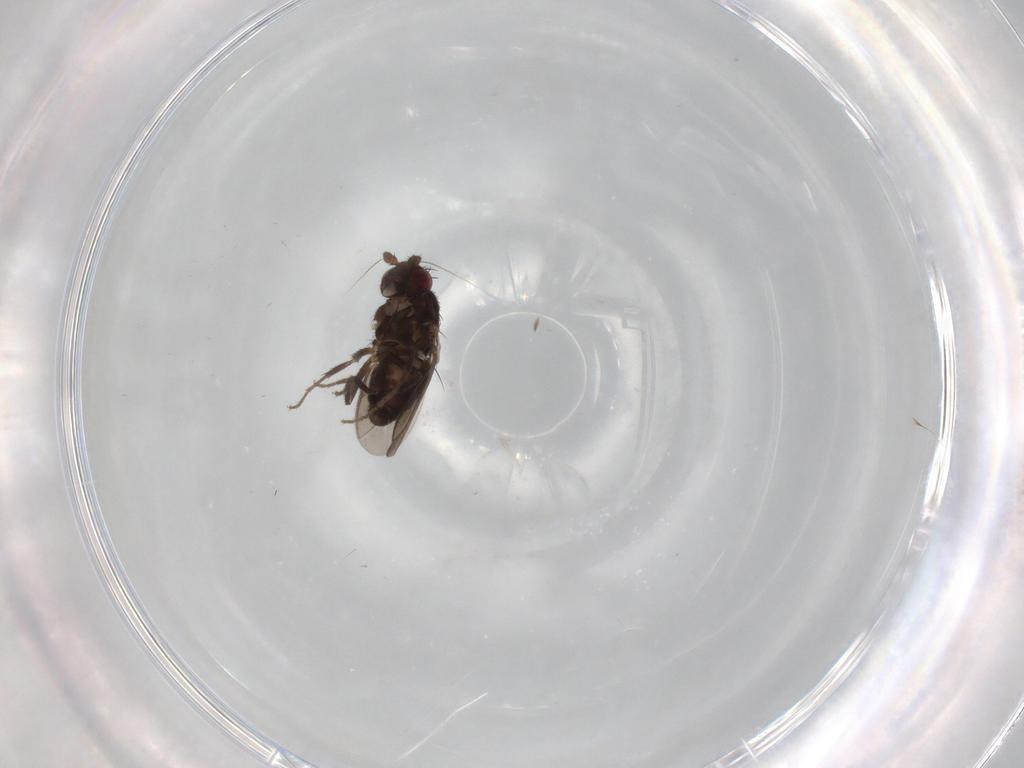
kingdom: Animalia
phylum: Arthropoda
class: Insecta
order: Diptera
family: Sphaeroceridae
